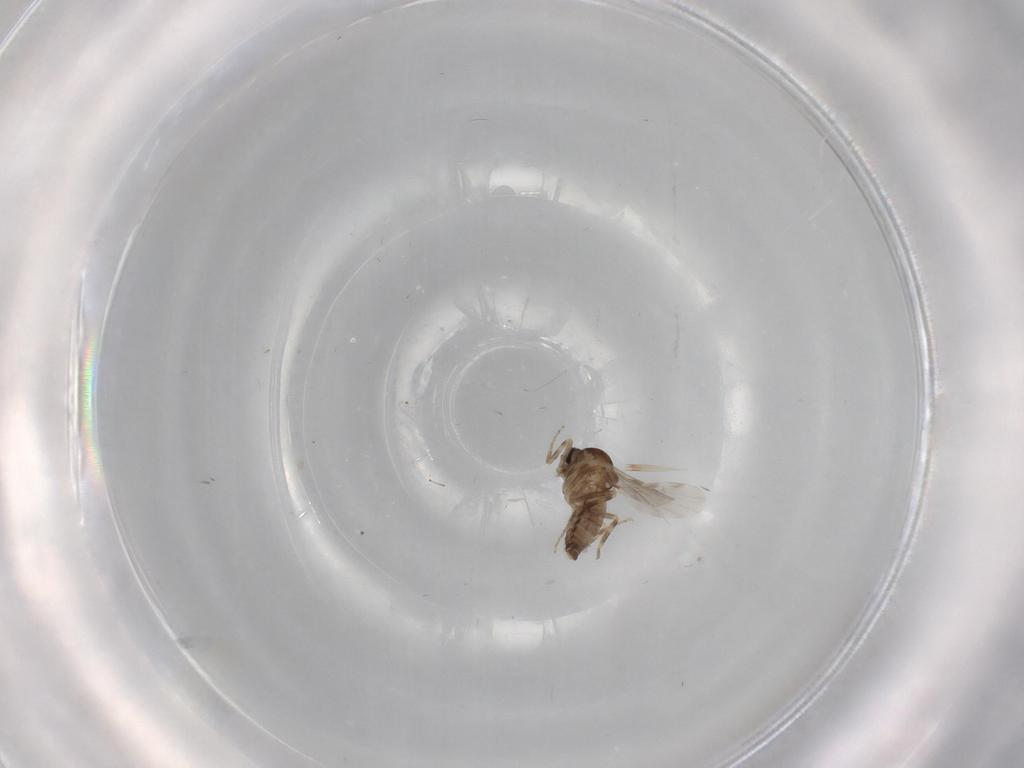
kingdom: Animalia
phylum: Arthropoda
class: Insecta
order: Diptera
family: Ceratopogonidae
